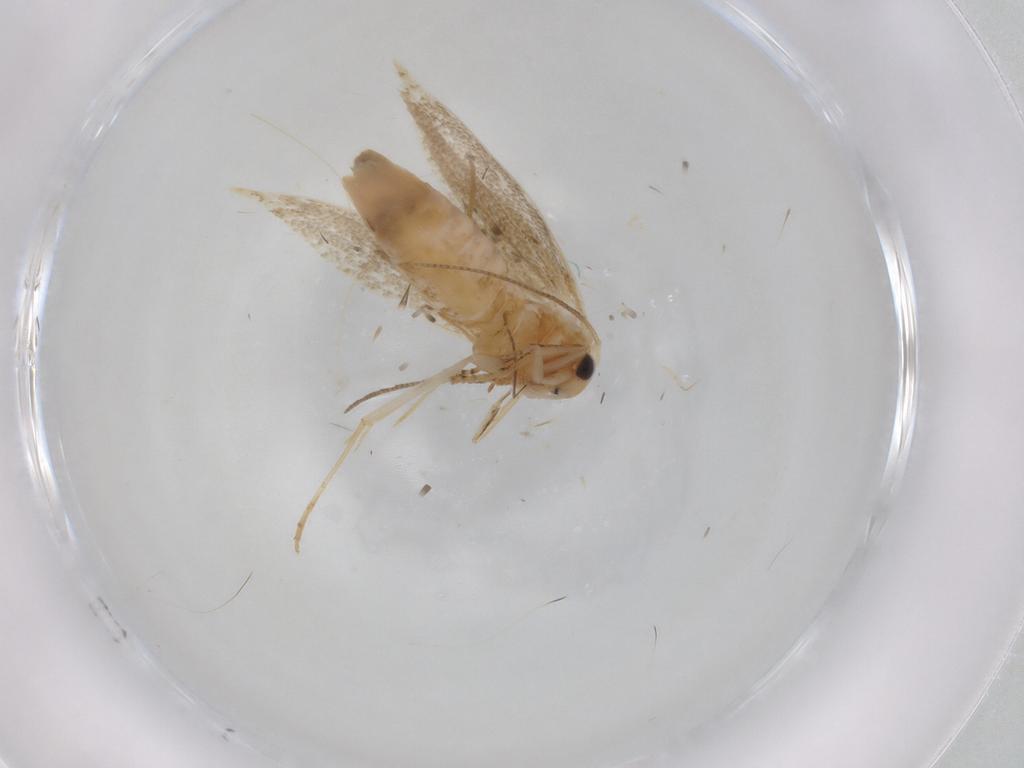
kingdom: Animalia
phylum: Arthropoda
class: Insecta
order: Lepidoptera
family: Noctuidae
